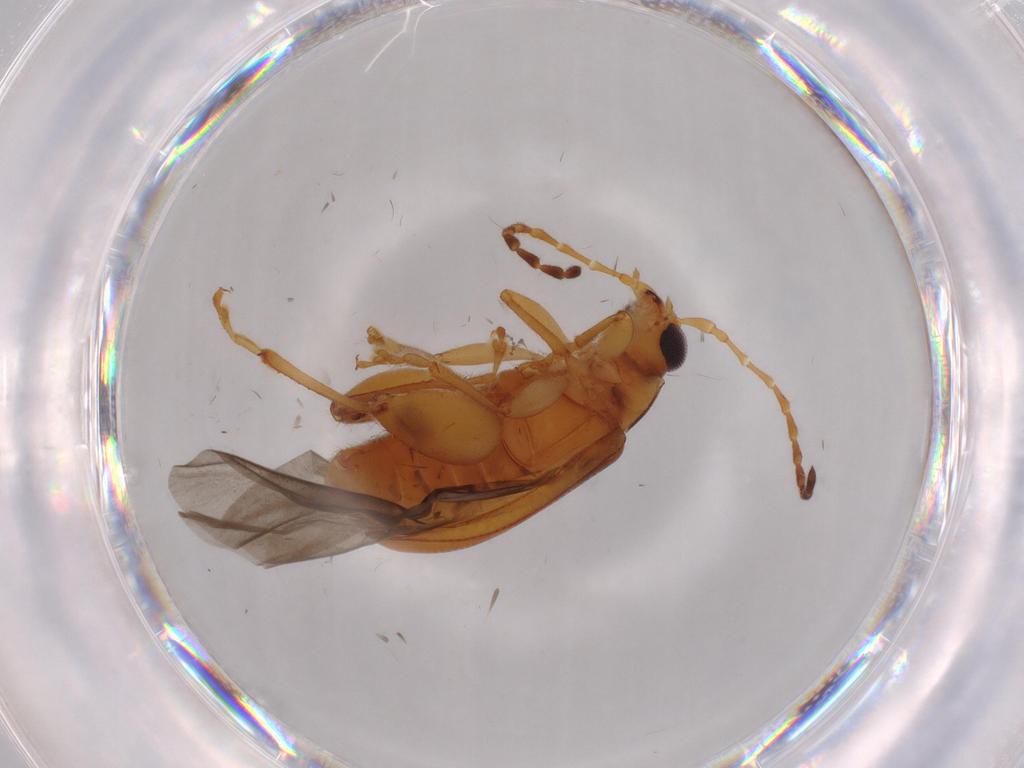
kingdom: Animalia
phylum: Arthropoda
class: Insecta
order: Coleoptera
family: Chrysomelidae
